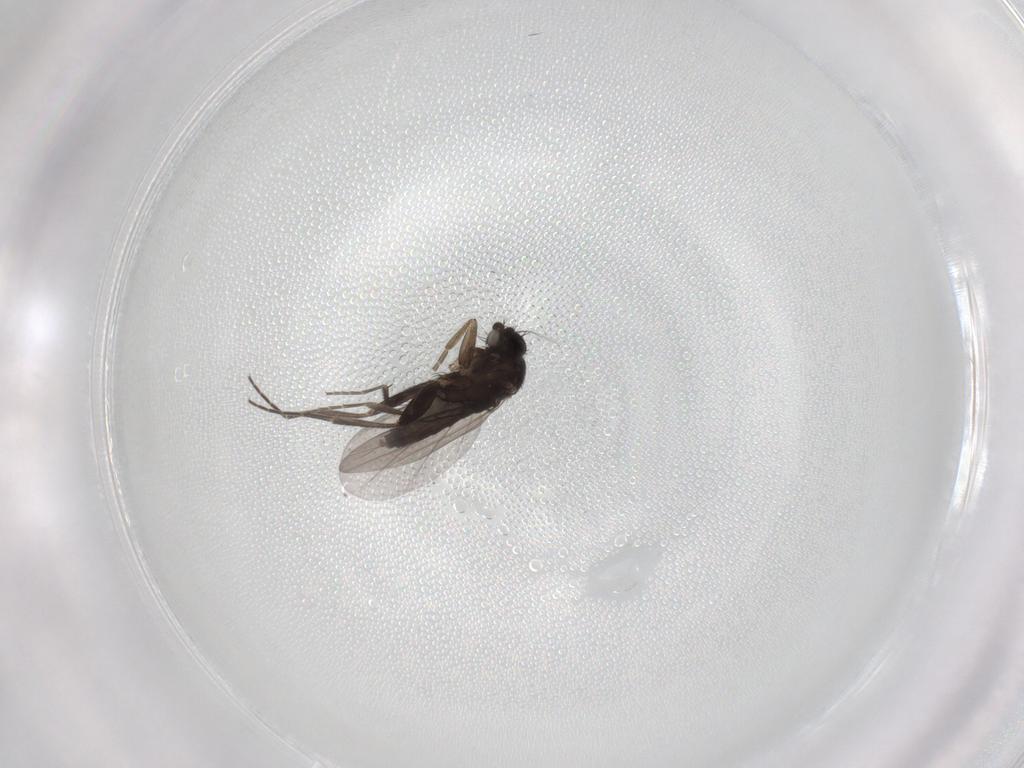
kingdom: Animalia
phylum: Arthropoda
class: Insecta
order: Diptera
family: Phoridae
